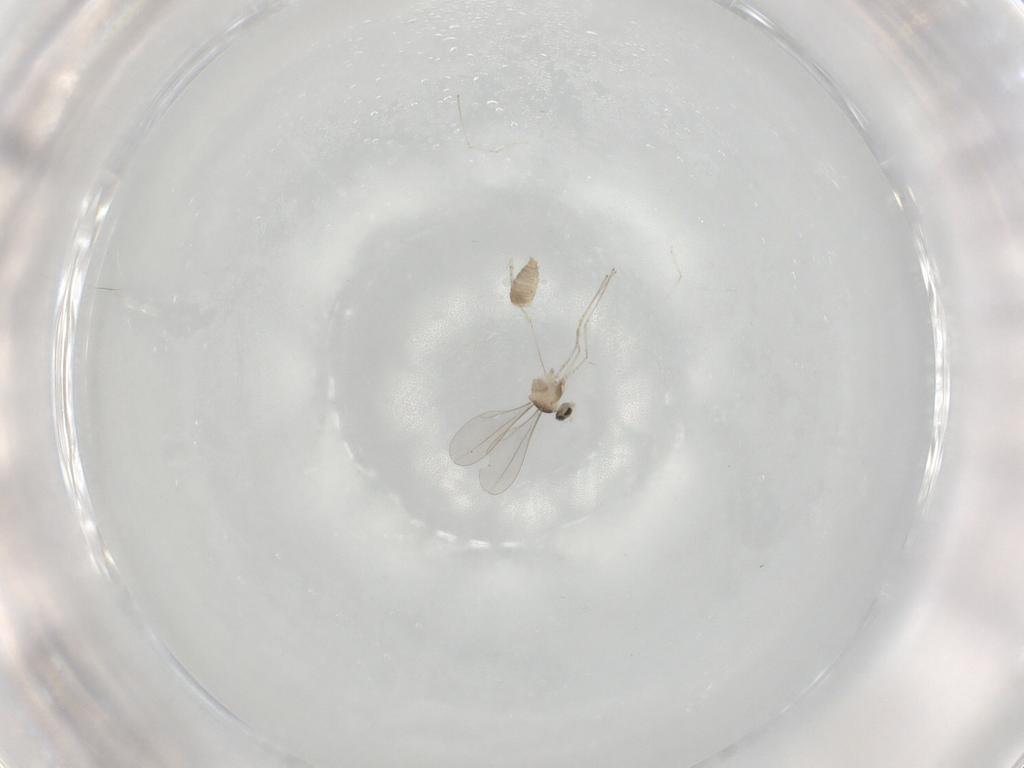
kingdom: Animalia
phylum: Arthropoda
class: Insecta
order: Diptera
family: Cecidomyiidae
